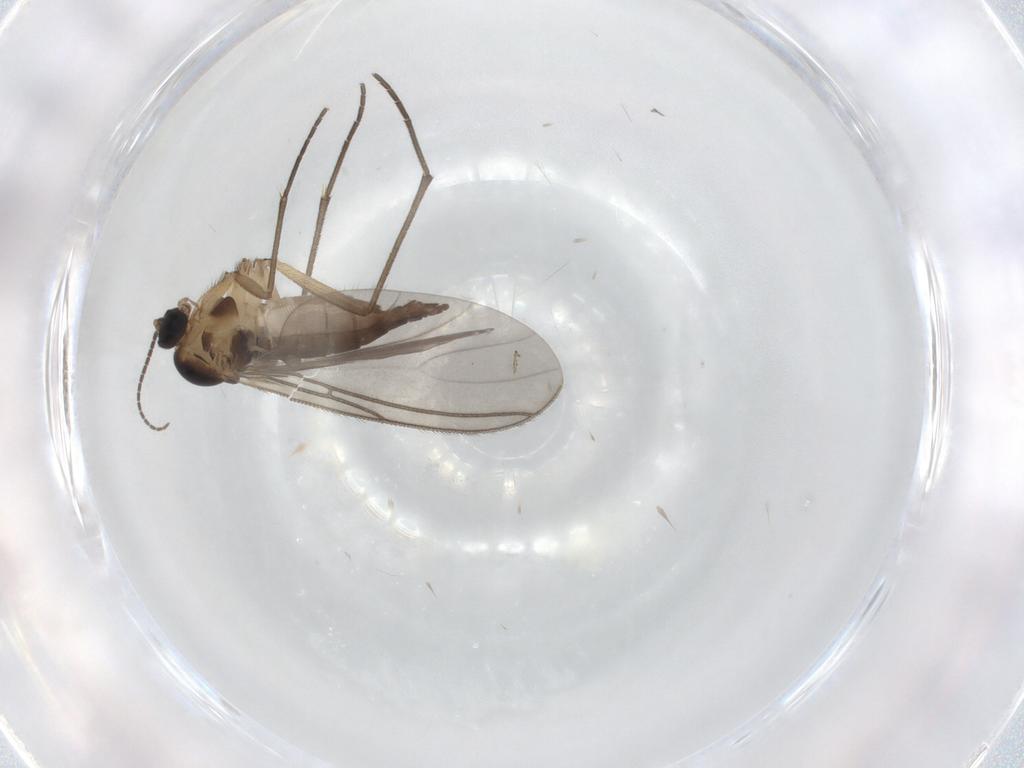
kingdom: Animalia
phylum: Arthropoda
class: Insecta
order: Diptera
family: Sciaridae
